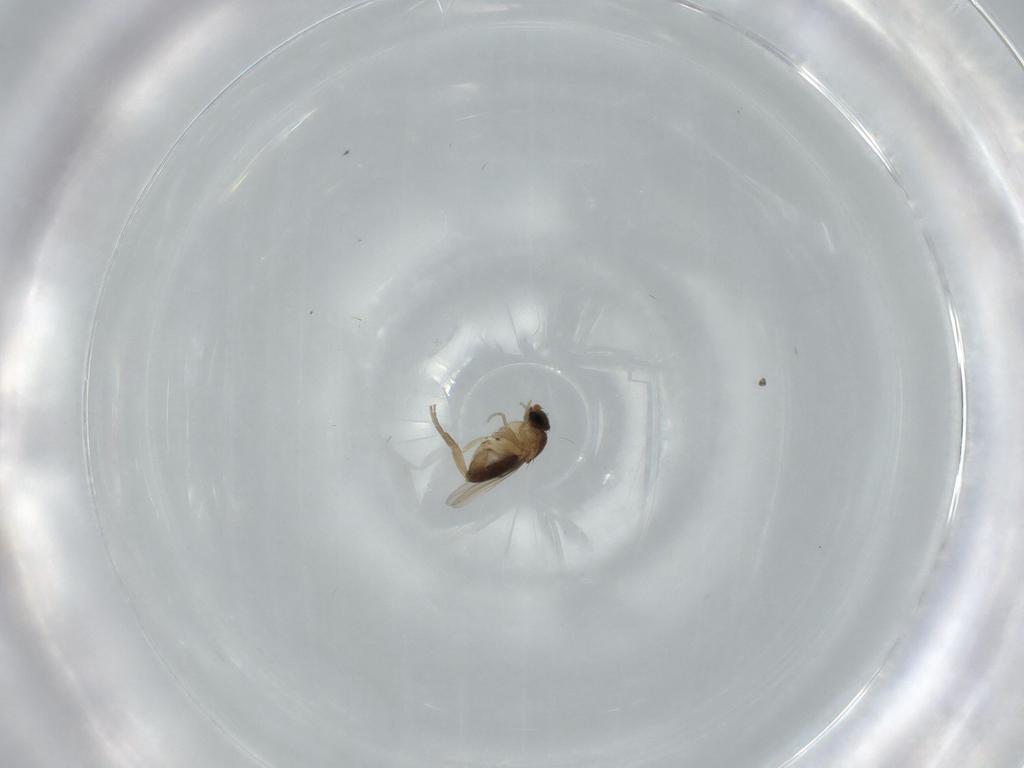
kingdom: Animalia
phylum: Arthropoda
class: Insecta
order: Diptera
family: Phoridae
